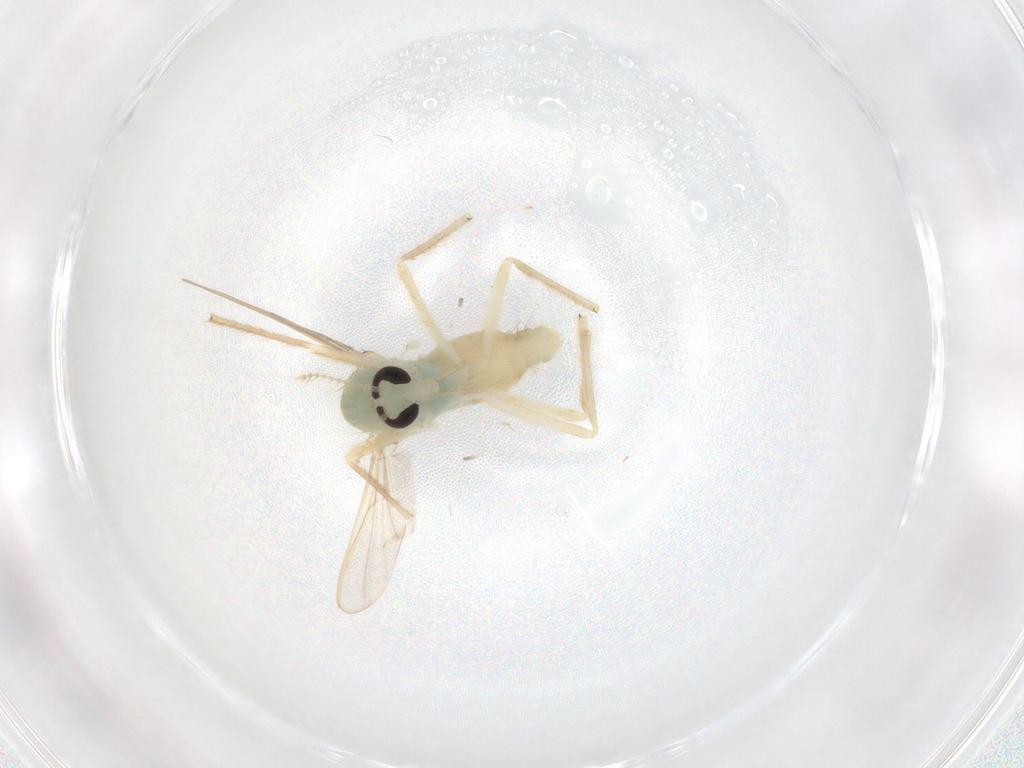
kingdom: Animalia
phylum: Arthropoda
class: Insecta
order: Diptera
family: Chironomidae
